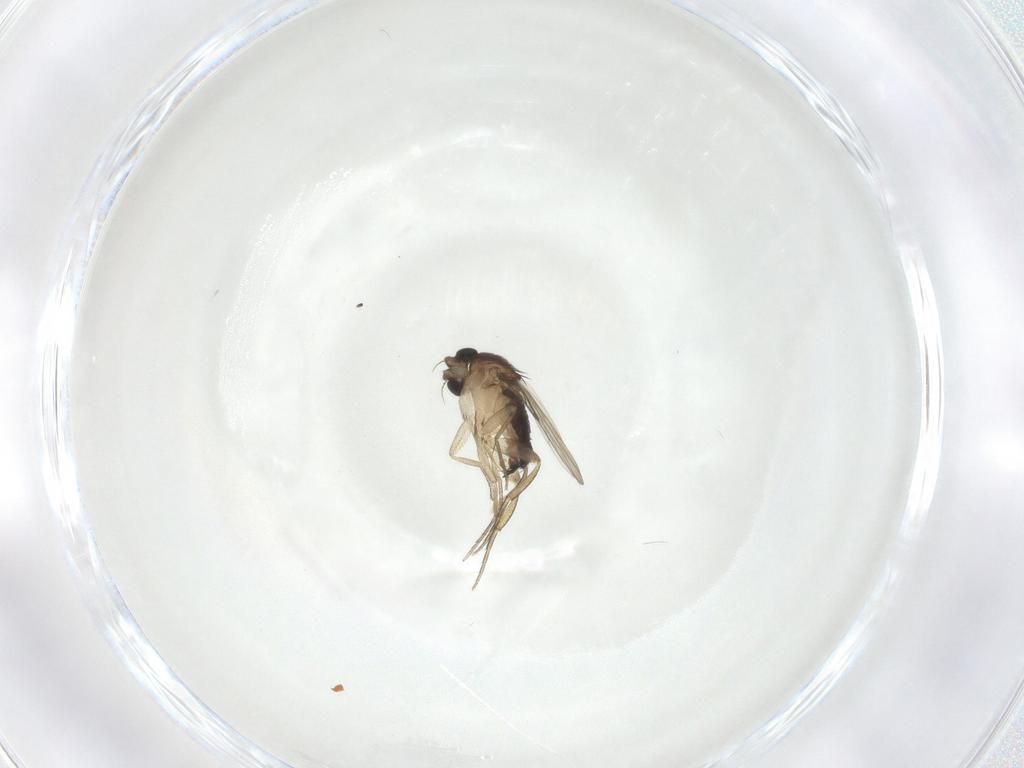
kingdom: Animalia
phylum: Arthropoda
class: Insecta
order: Diptera
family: Phoridae
